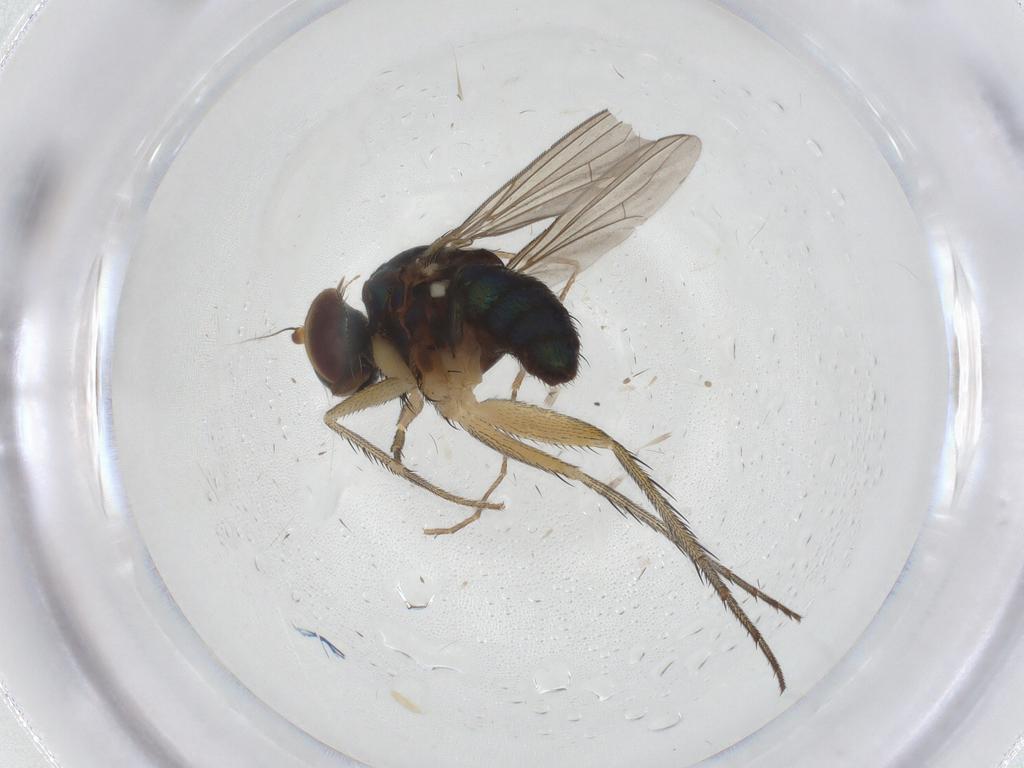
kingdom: Animalia
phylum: Arthropoda
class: Insecta
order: Diptera
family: Dolichopodidae
